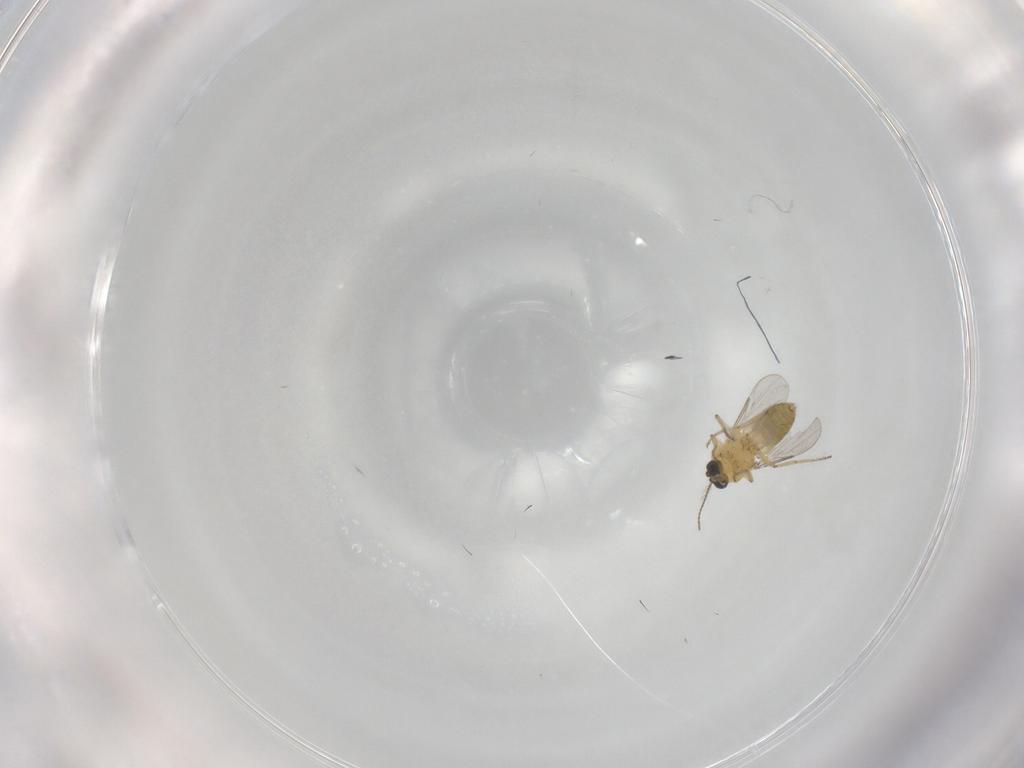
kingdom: Animalia
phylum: Arthropoda
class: Insecta
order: Diptera
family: Ceratopogonidae
